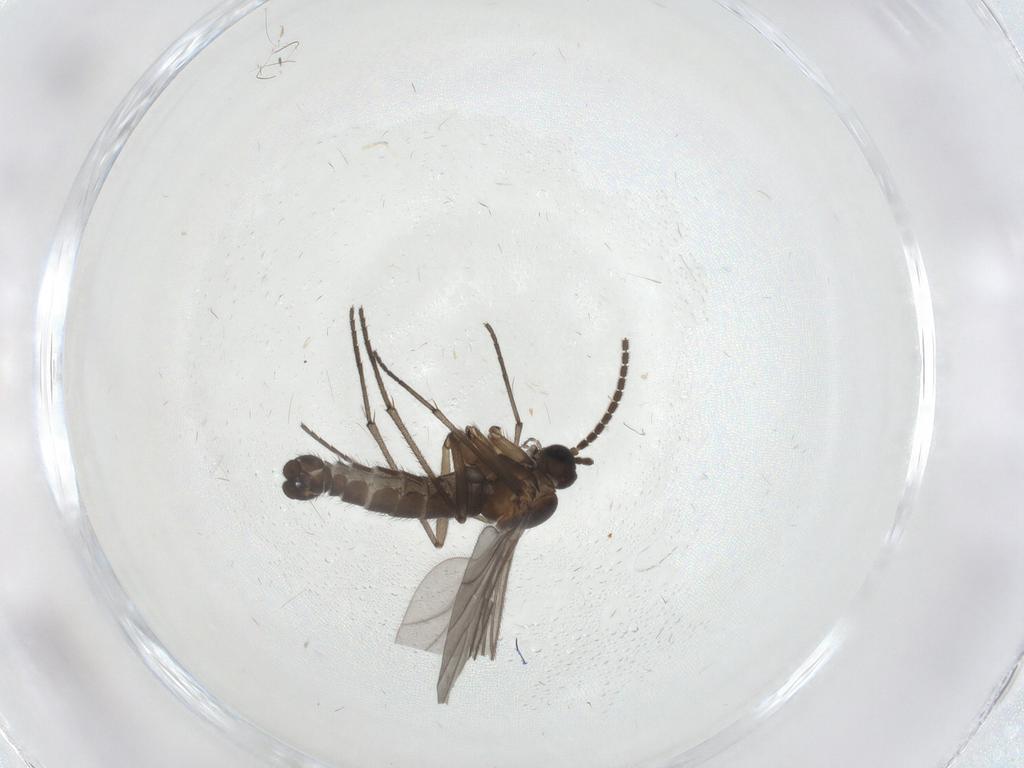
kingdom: Animalia
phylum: Arthropoda
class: Insecta
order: Diptera
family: Sciaridae
